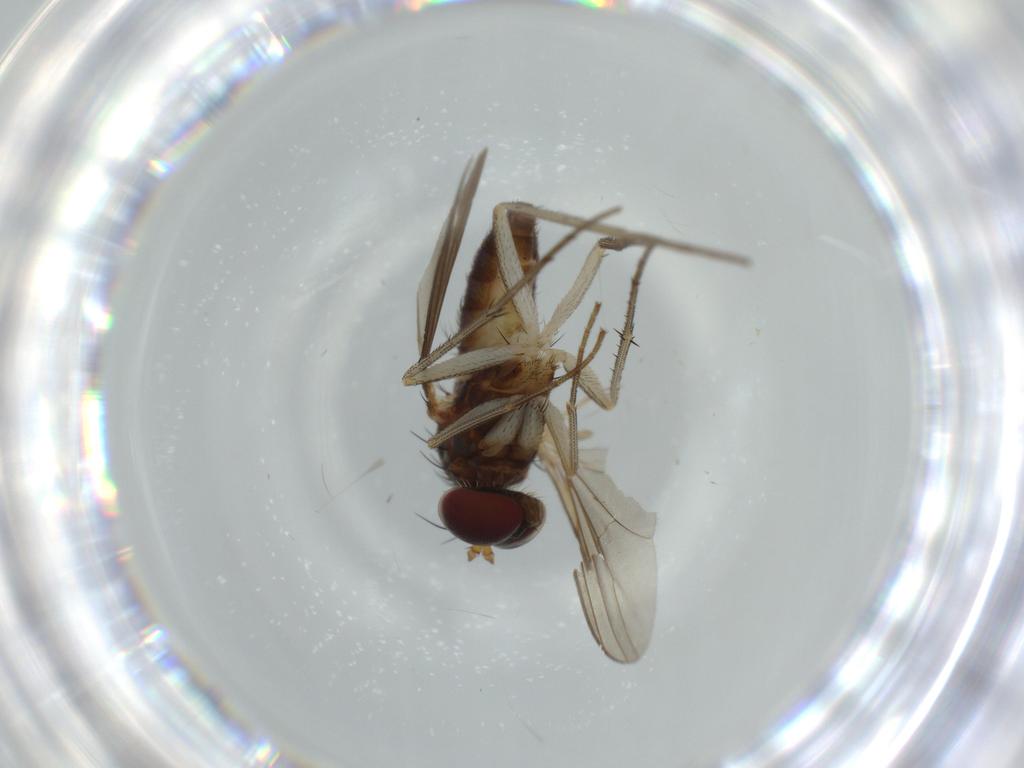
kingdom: Animalia
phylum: Arthropoda
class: Insecta
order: Diptera
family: Dolichopodidae
